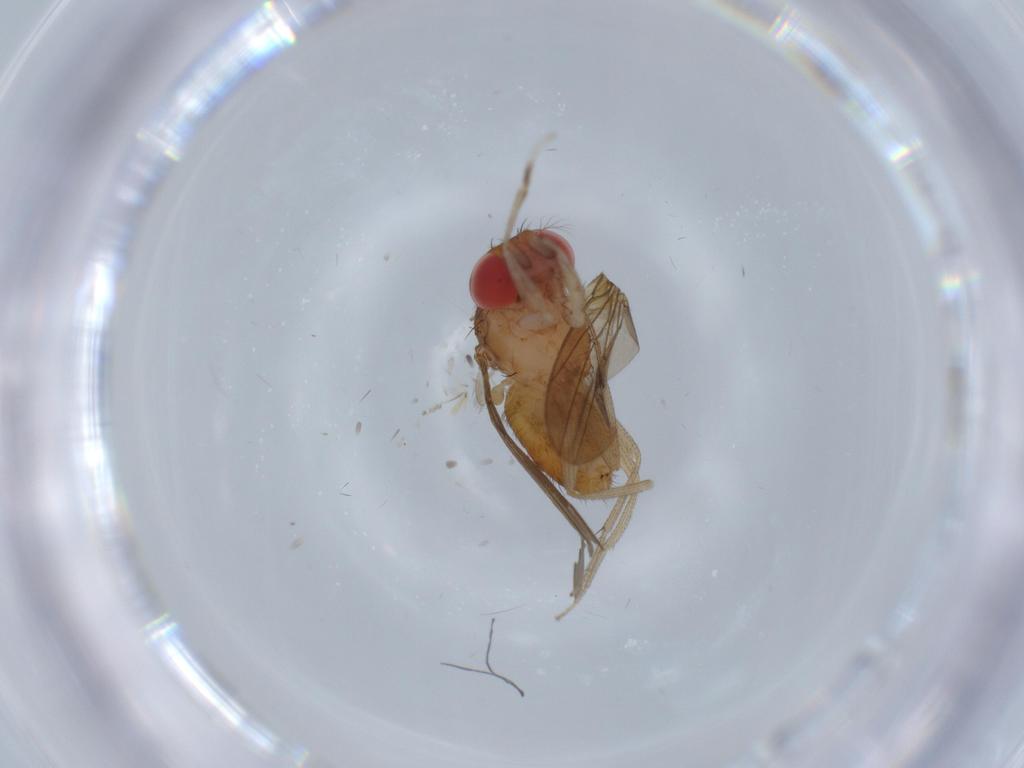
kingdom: Animalia
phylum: Arthropoda
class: Insecta
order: Diptera
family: Drosophilidae
